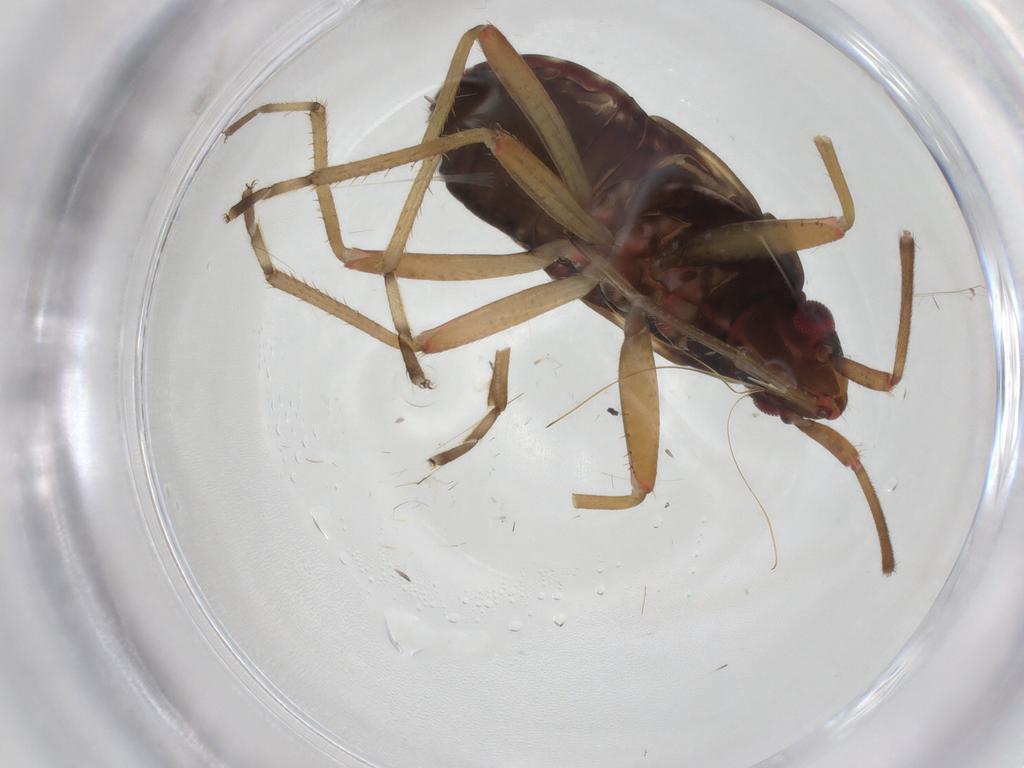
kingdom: Animalia
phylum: Arthropoda
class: Insecta
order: Hemiptera
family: Rhyparochromidae
